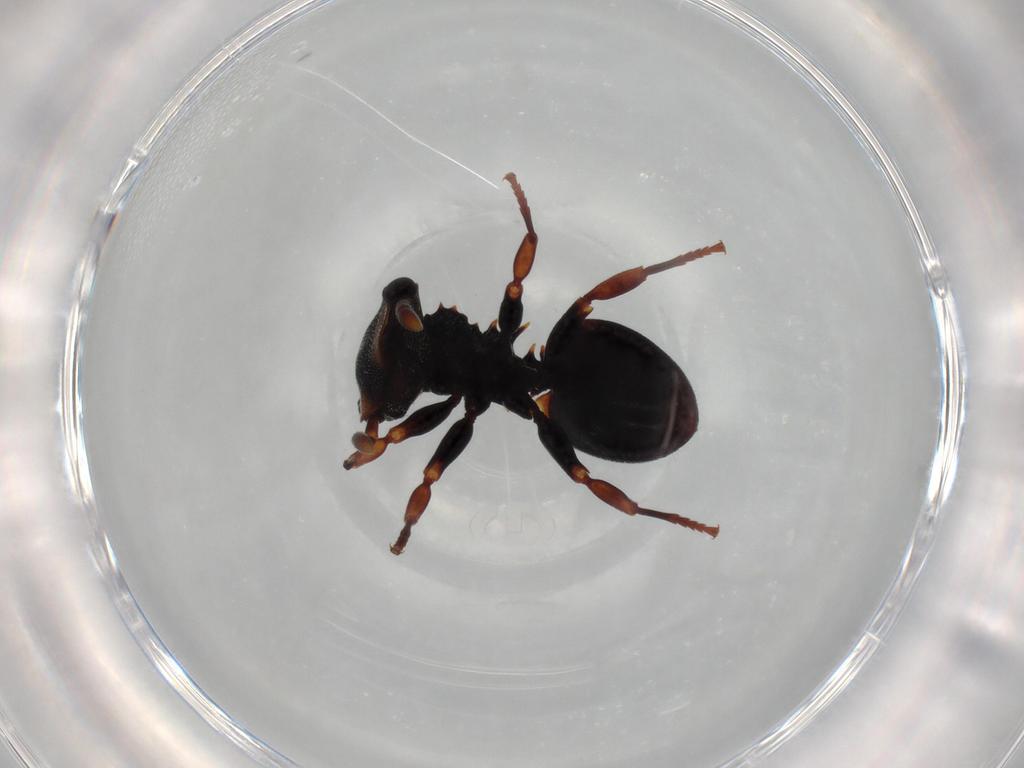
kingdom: Animalia
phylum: Arthropoda
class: Insecta
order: Hymenoptera
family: Formicidae
